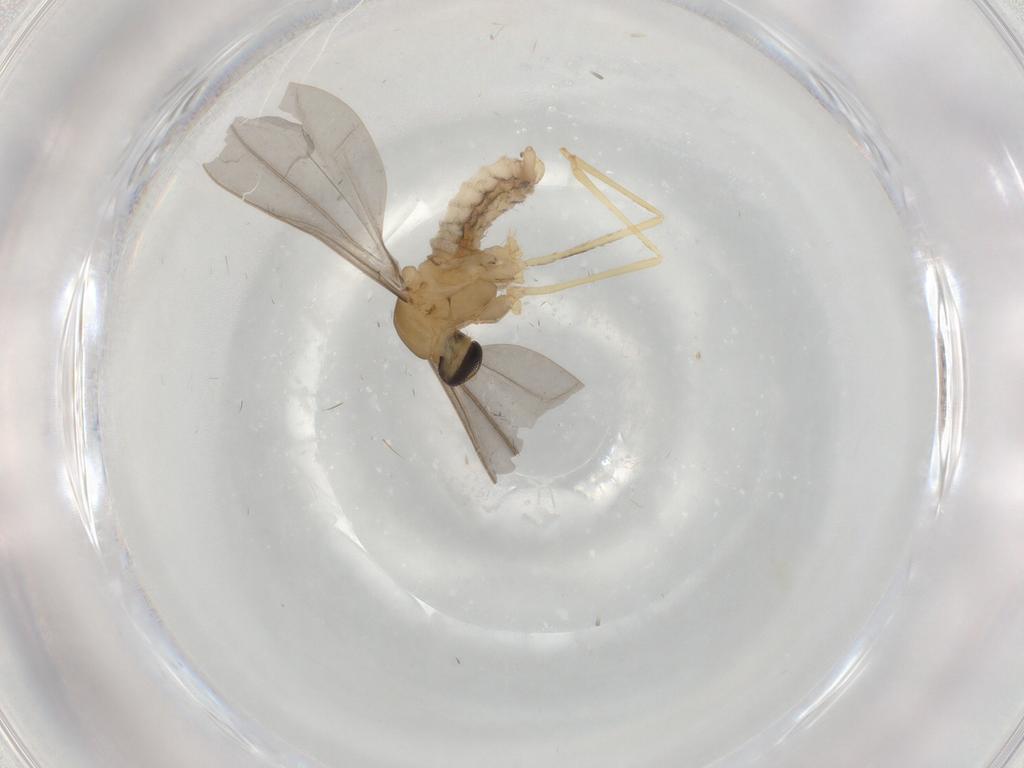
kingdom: Animalia
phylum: Arthropoda
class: Insecta
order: Diptera
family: Cecidomyiidae
